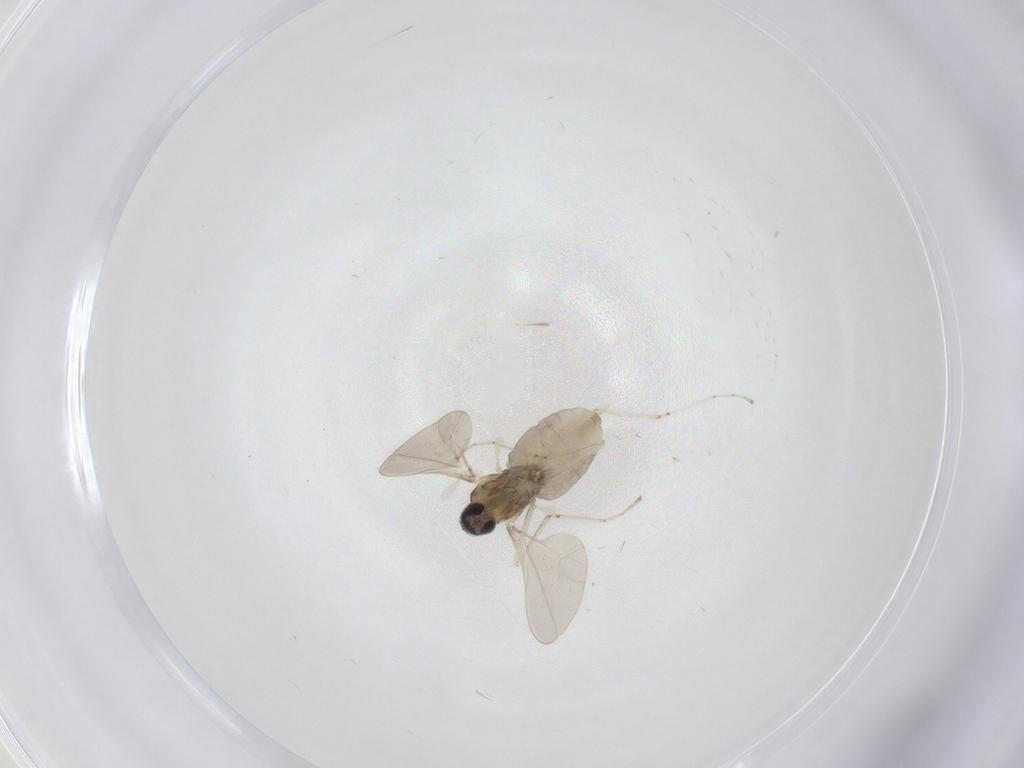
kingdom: Animalia
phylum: Arthropoda
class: Insecta
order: Diptera
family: Cecidomyiidae
